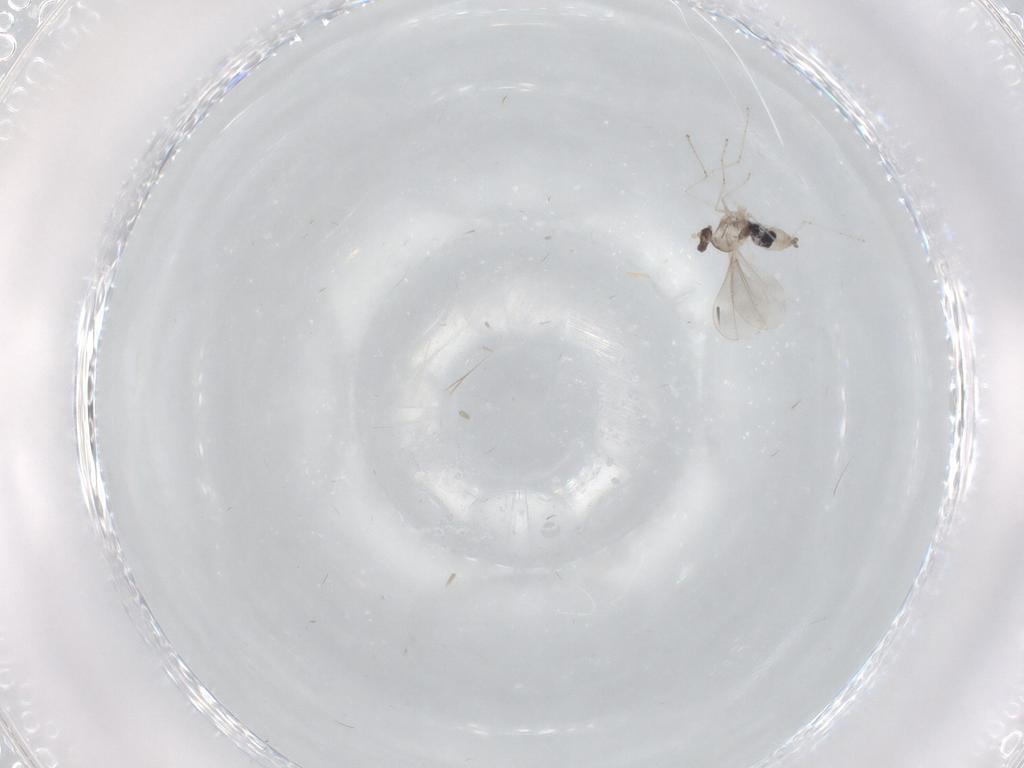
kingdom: Animalia
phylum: Arthropoda
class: Insecta
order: Diptera
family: Cecidomyiidae
